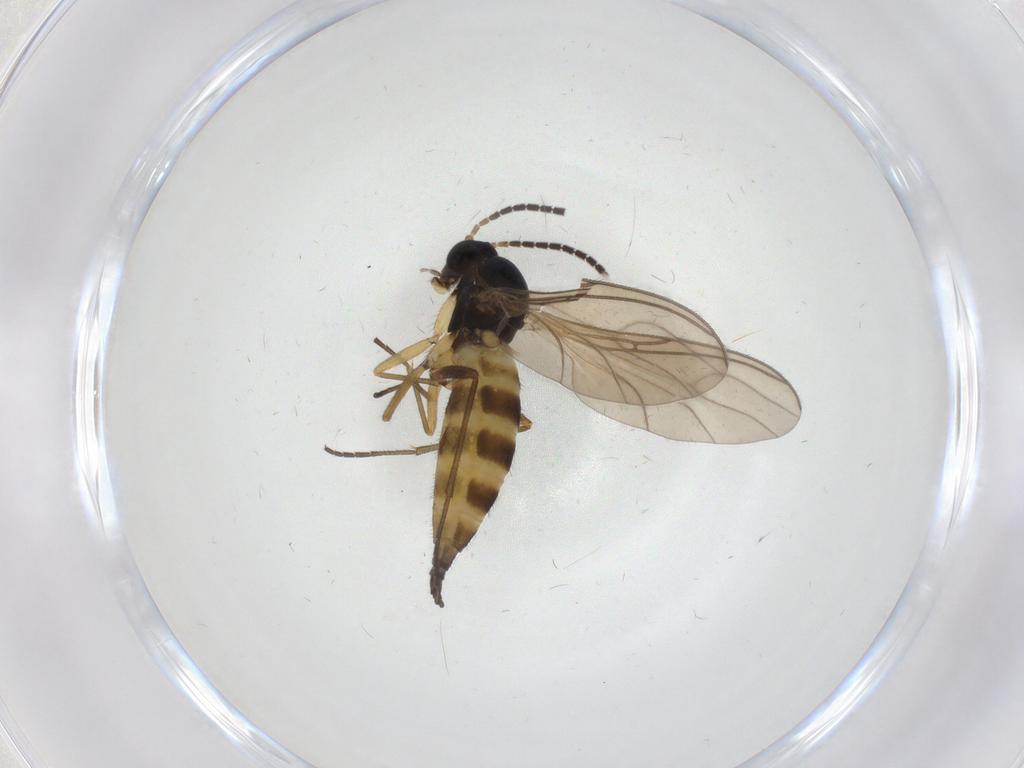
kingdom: Animalia
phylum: Arthropoda
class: Insecta
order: Diptera
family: Sciaridae
